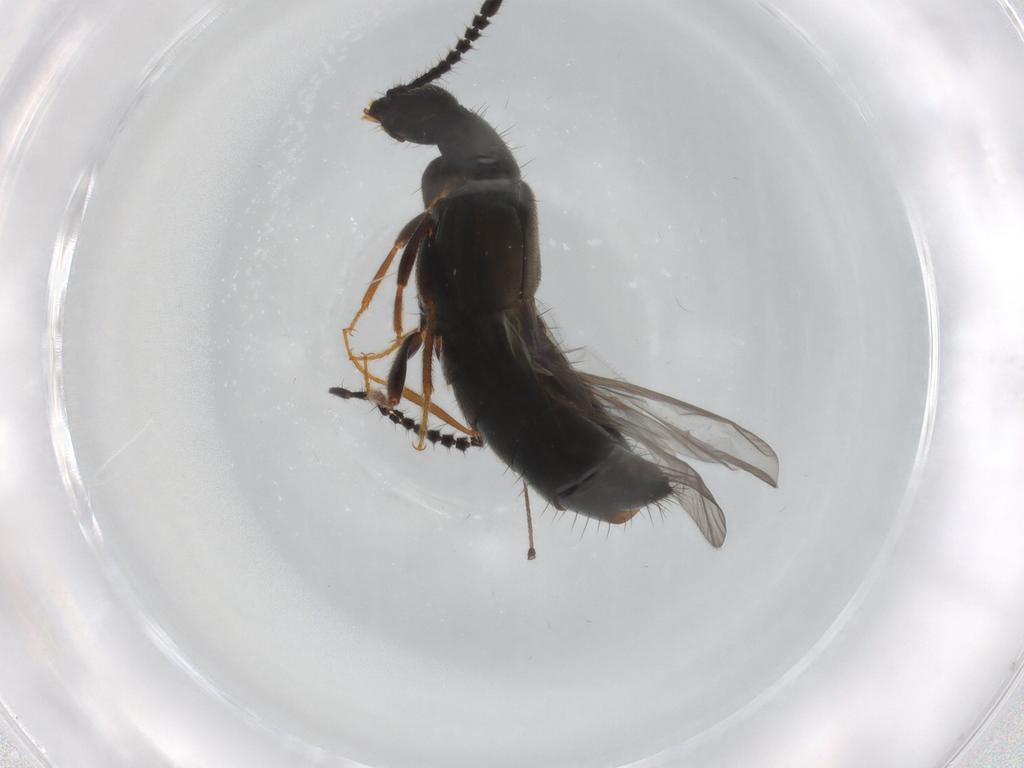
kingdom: Animalia
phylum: Arthropoda
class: Insecta
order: Coleoptera
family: Staphylinidae
